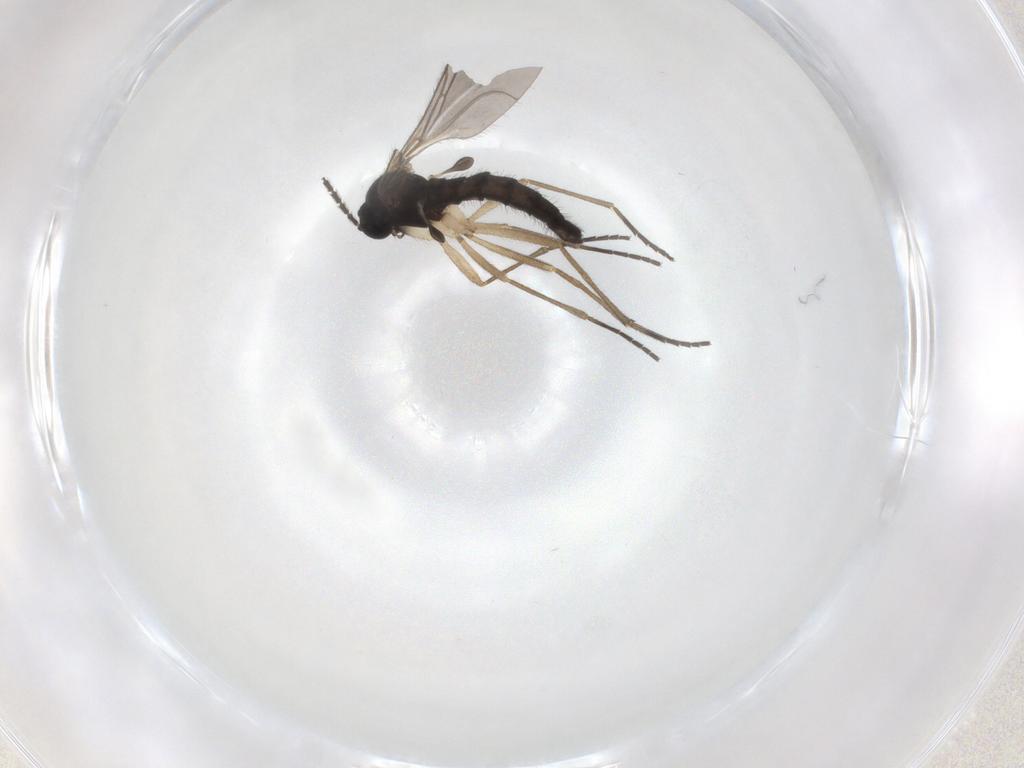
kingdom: Animalia
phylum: Arthropoda
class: Insecta
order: Diptera
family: Sciaridae
